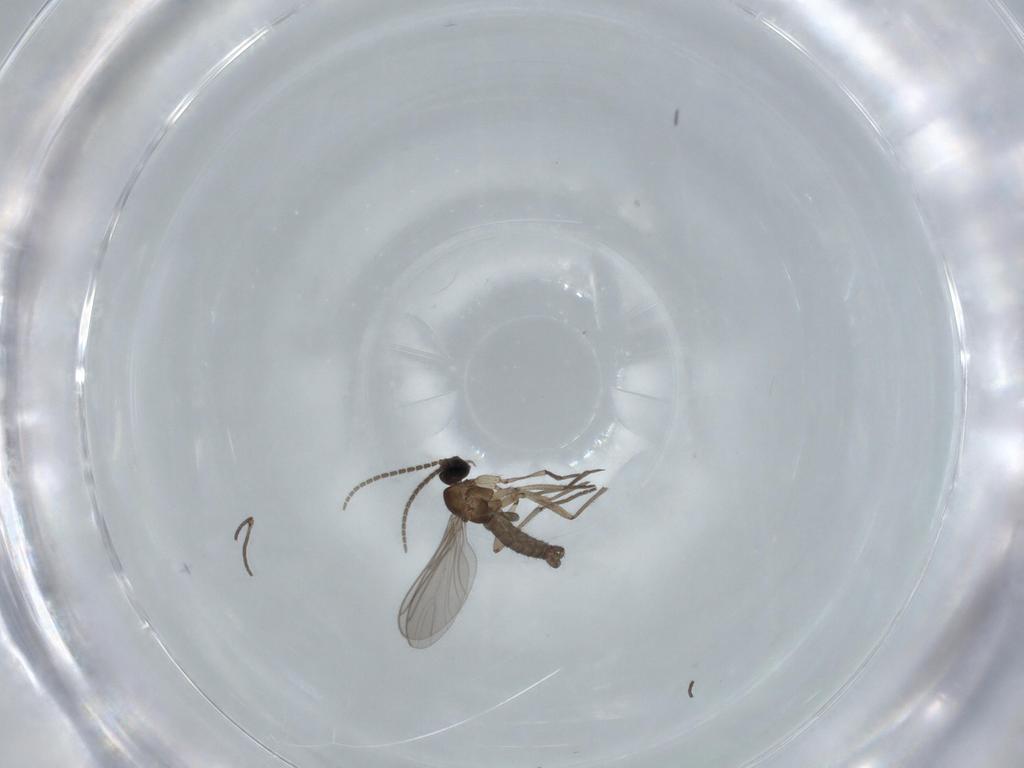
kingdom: Animalia
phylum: Arthropoda
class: Insecta
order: Diptera
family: Sciaridae
